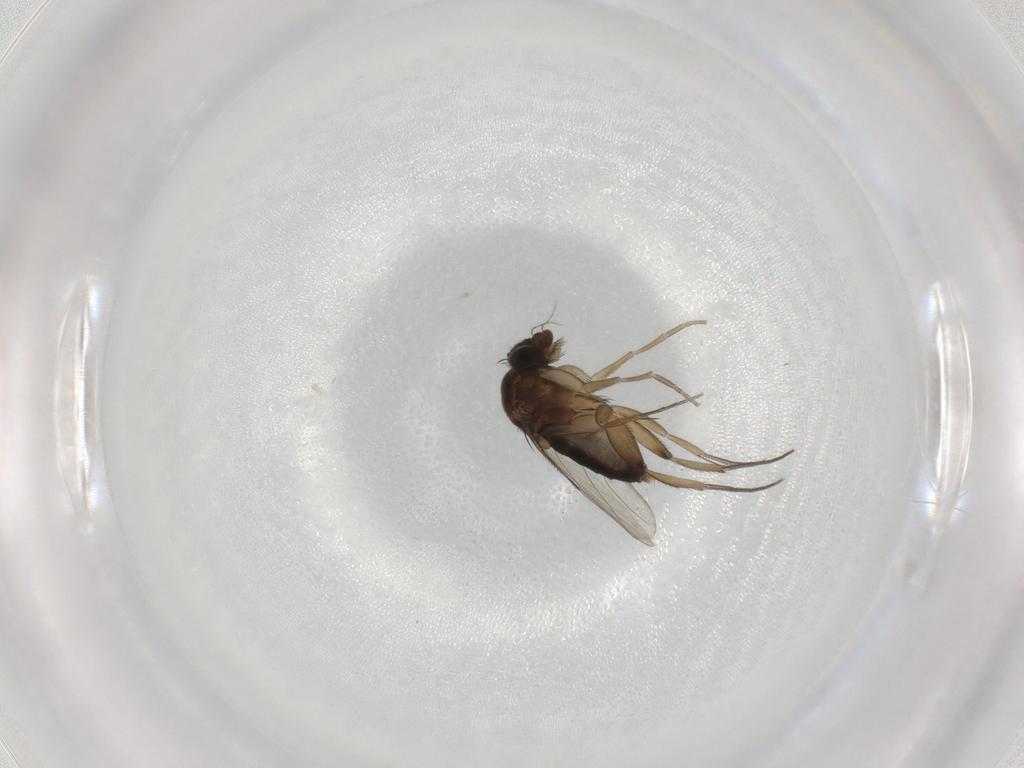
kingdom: Animalia
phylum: Arthropoda
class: Insecta
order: Diptera
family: Phoridae
